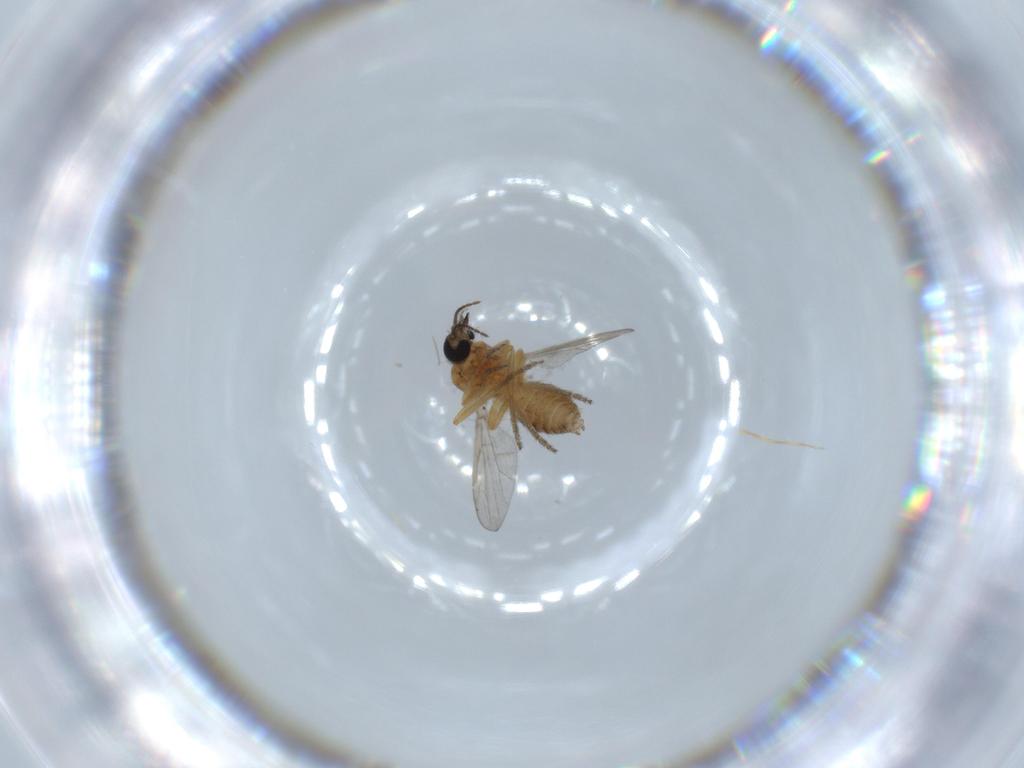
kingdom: Animalia
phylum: Arthropoda
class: Insecta
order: Diptera
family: Ceratopogonidae
